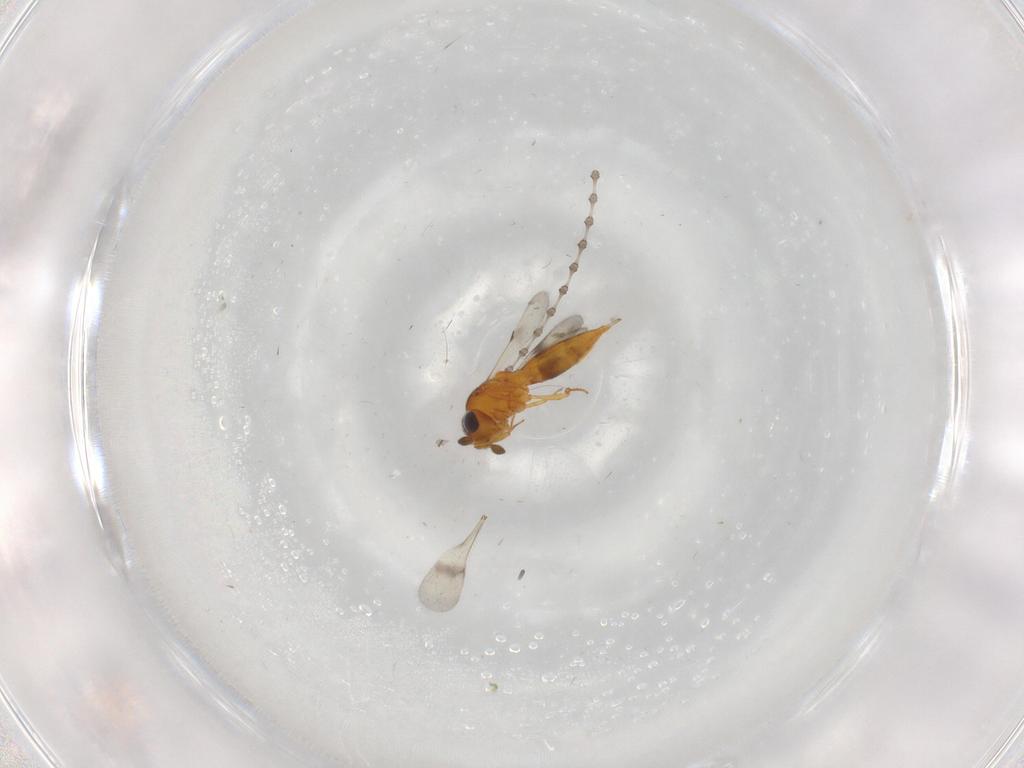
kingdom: Animalia
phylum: Arthropoda
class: Insecta
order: Hymenoptera
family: Scelionidae
